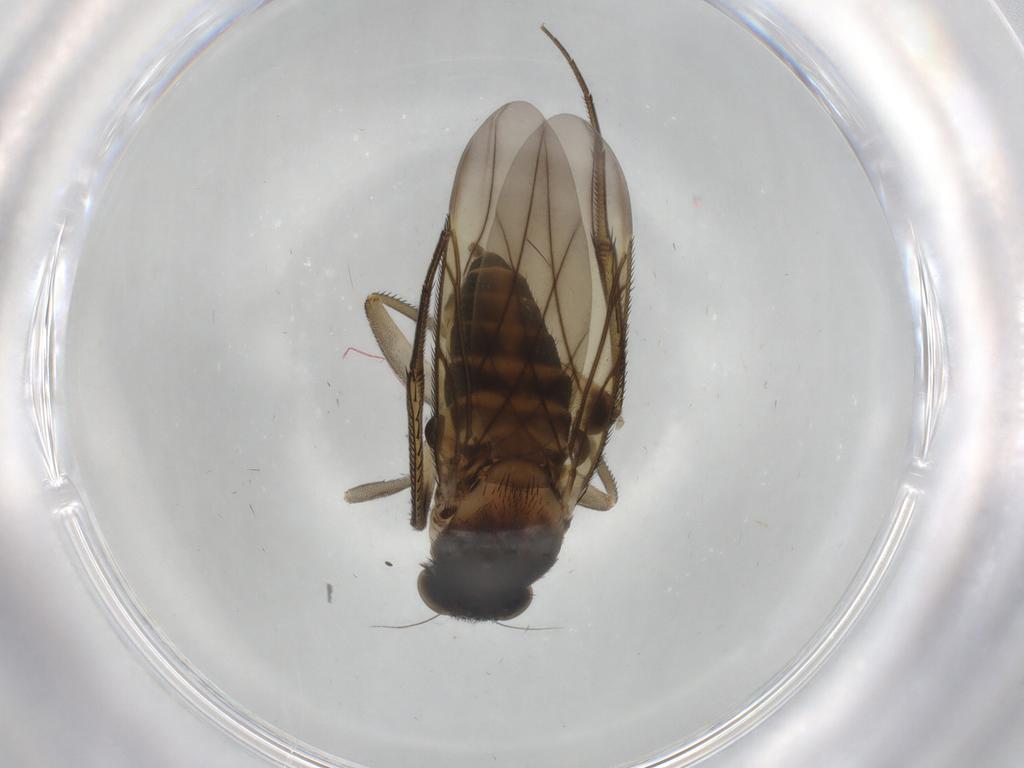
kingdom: Animalia
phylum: Arthropoda
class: Insecta
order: Diptera
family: Phoridae
